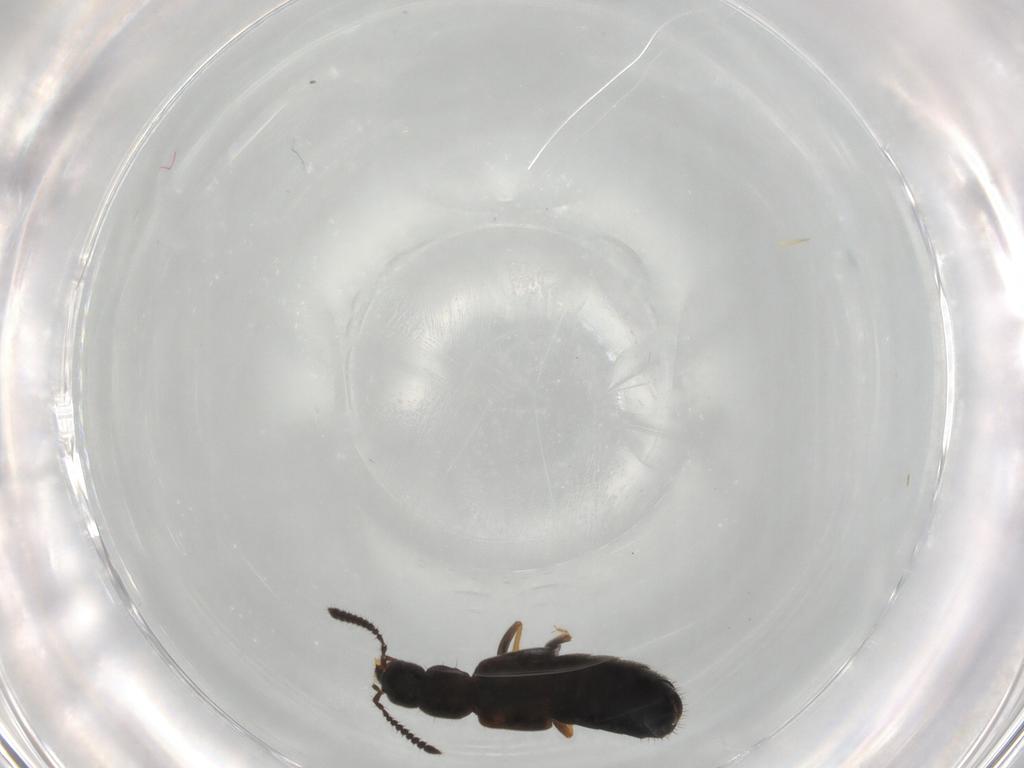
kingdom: Animalia
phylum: Arthropoda
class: Insecta
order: Coleoptera
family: Staphylinidae
